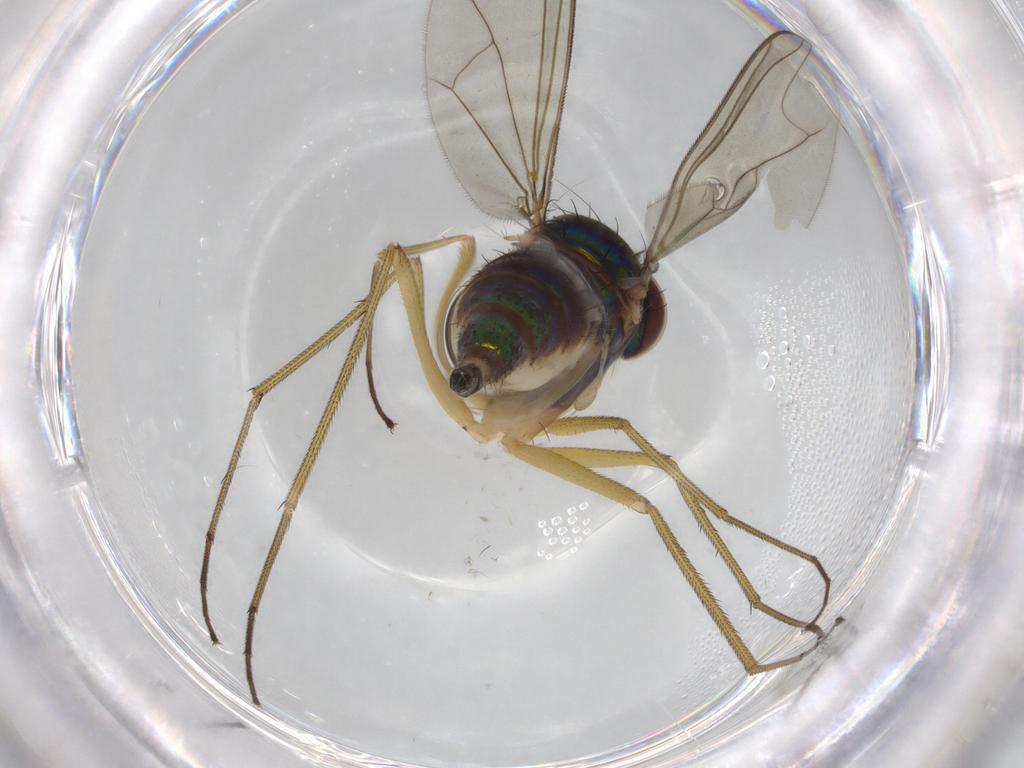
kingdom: Animalia
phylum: Arthropoda
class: Insecta
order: Diptera
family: Dolichopodidae
